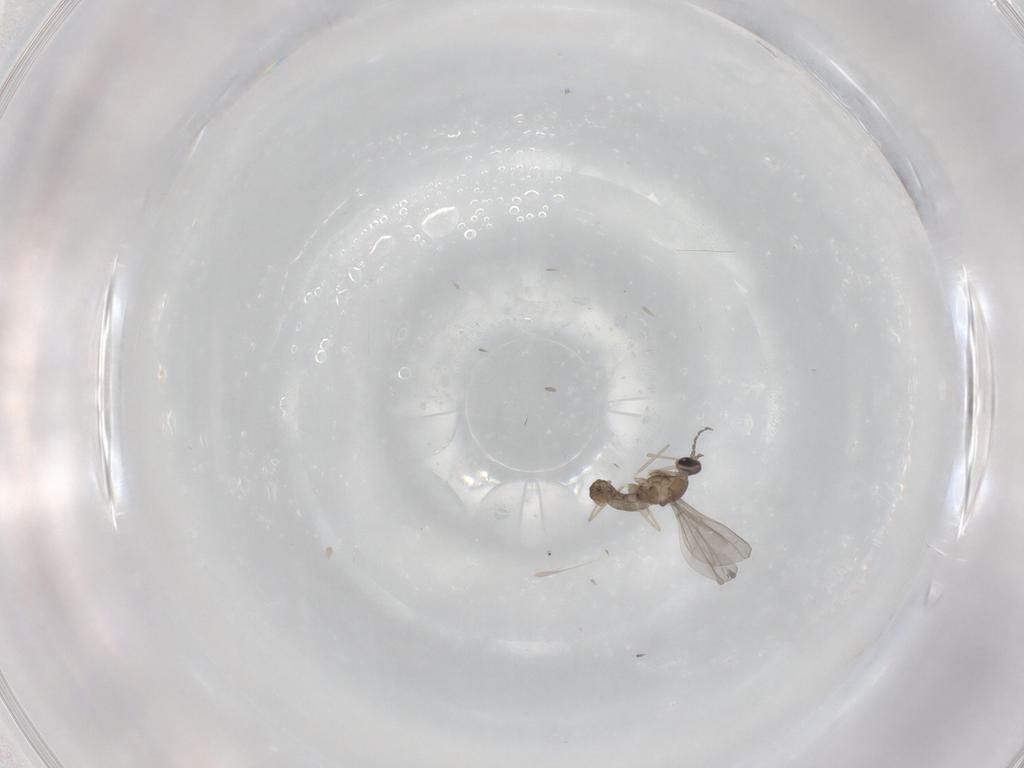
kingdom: Animalia
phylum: Arthropoda
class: Insecta
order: Diptera
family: Cecidomyiidae
